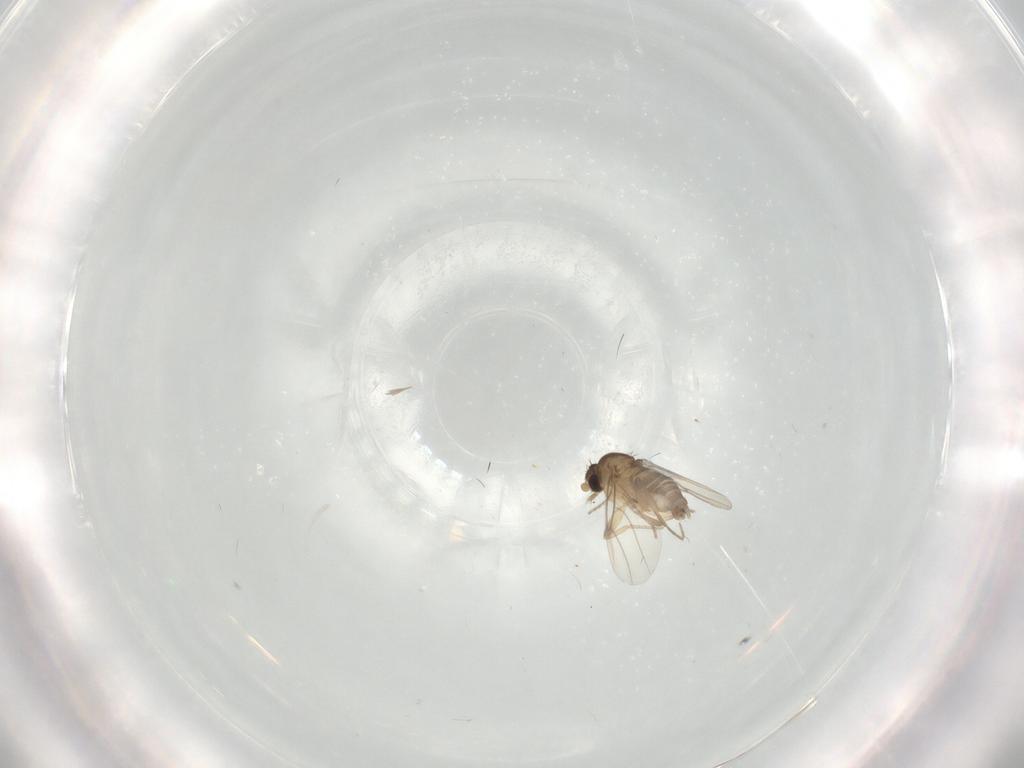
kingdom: Animalia
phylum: Arthropoda
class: Insecta
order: Diptera
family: Phoridae
